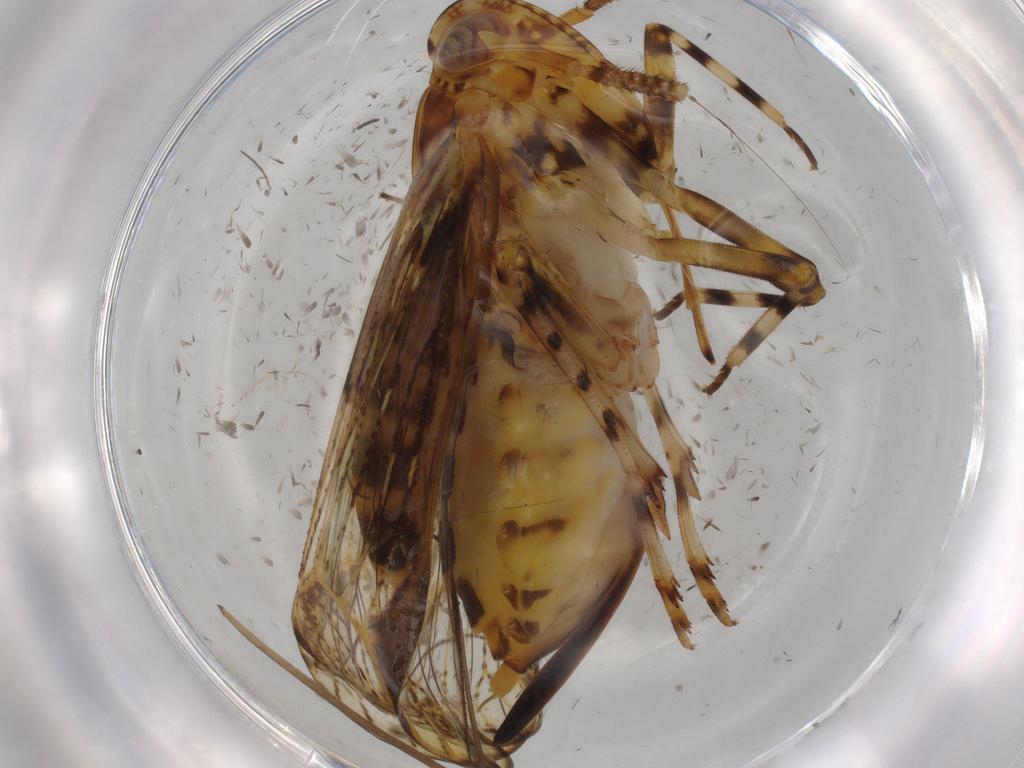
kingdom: Animalia
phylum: Arthropoda
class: Insecta
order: Hemiptera
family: Delphacidae
